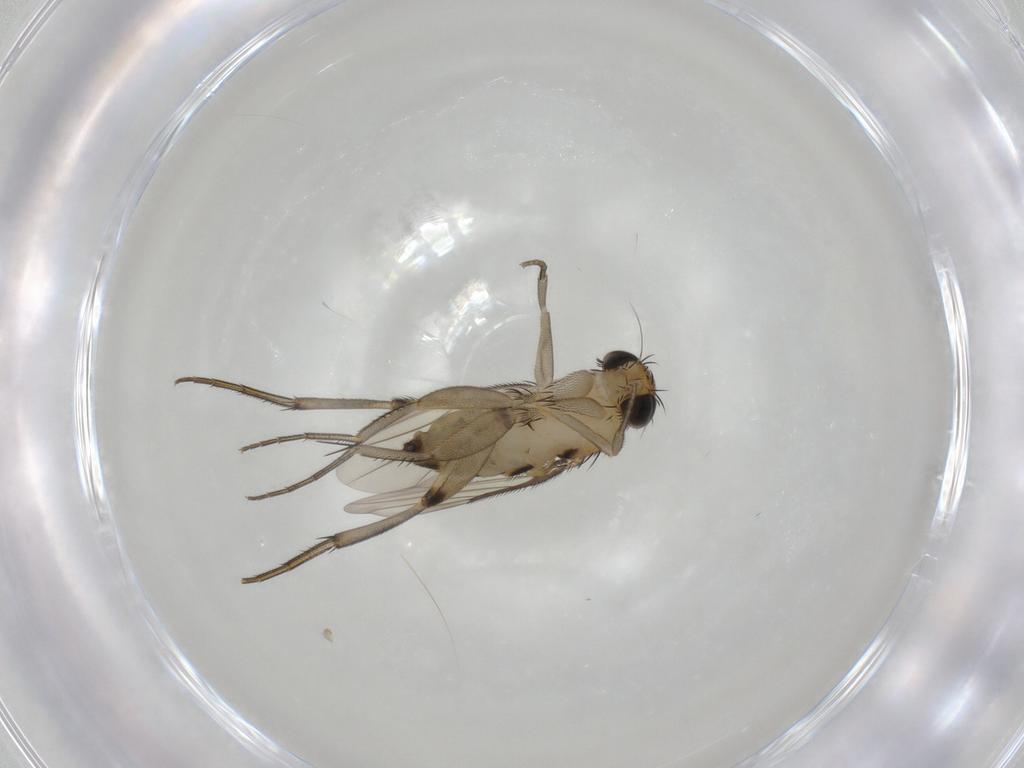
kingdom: Animalia
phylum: Arthropoda
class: Insecta
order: Diptera
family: Phoridae
